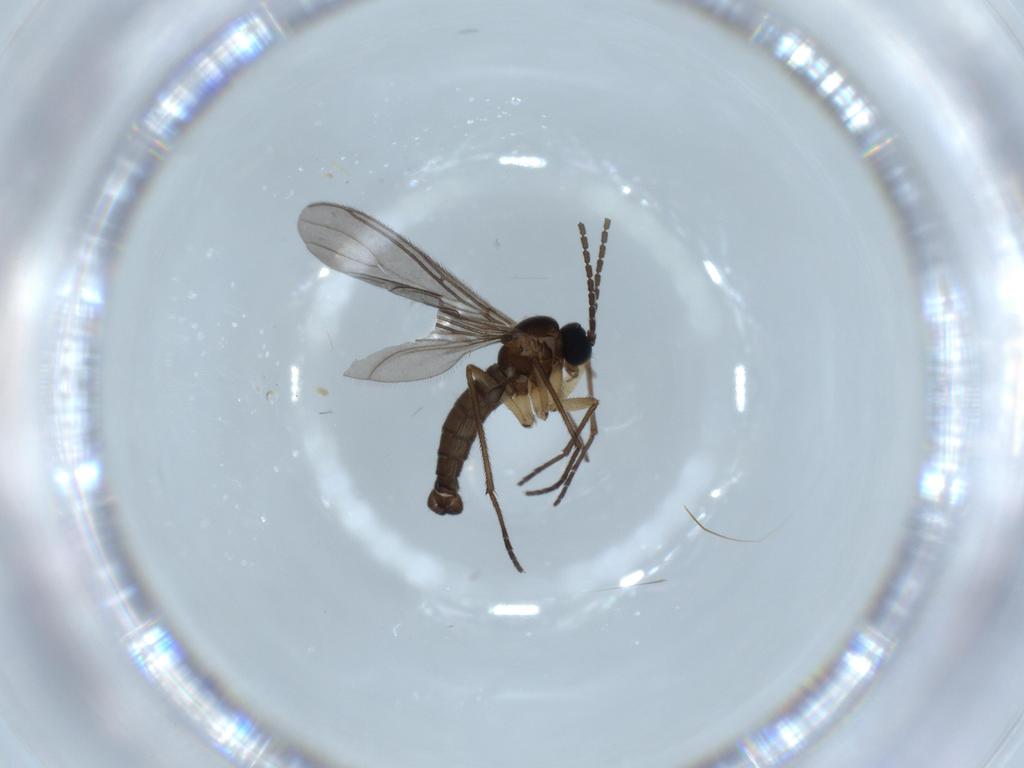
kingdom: Animalia
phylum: Arthropoda
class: Insecta
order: Diptera
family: Sciaridae
